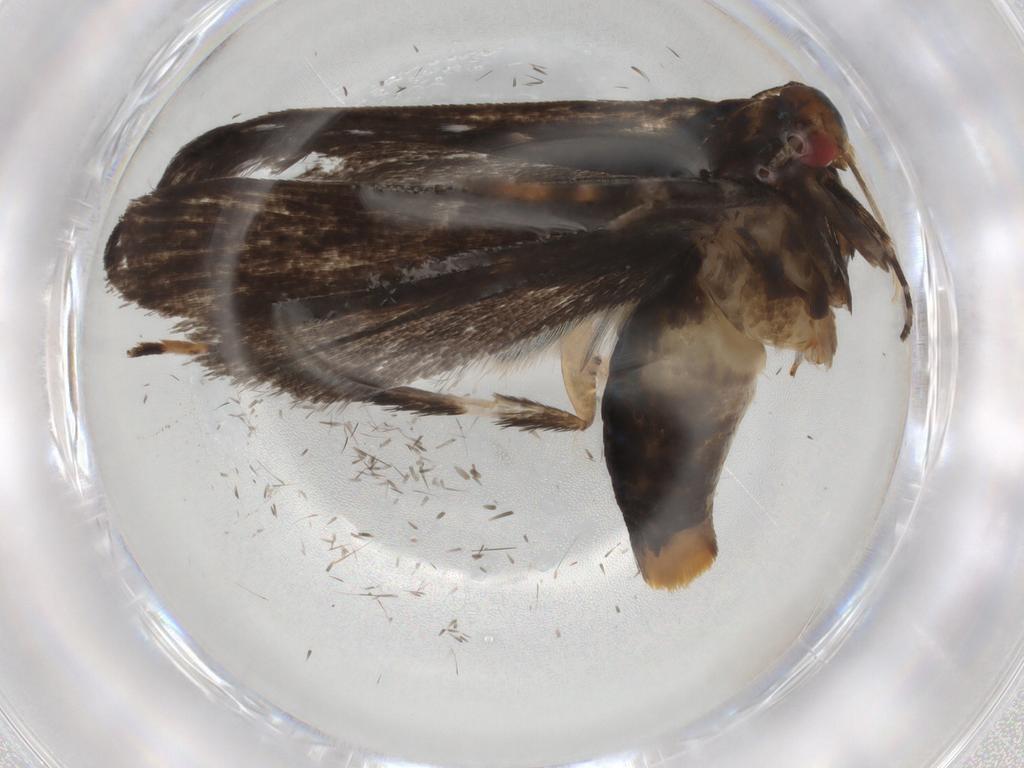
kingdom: Animalia
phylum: Arthropoda
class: Insecta
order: Lepidoptera
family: Gelechiidae
